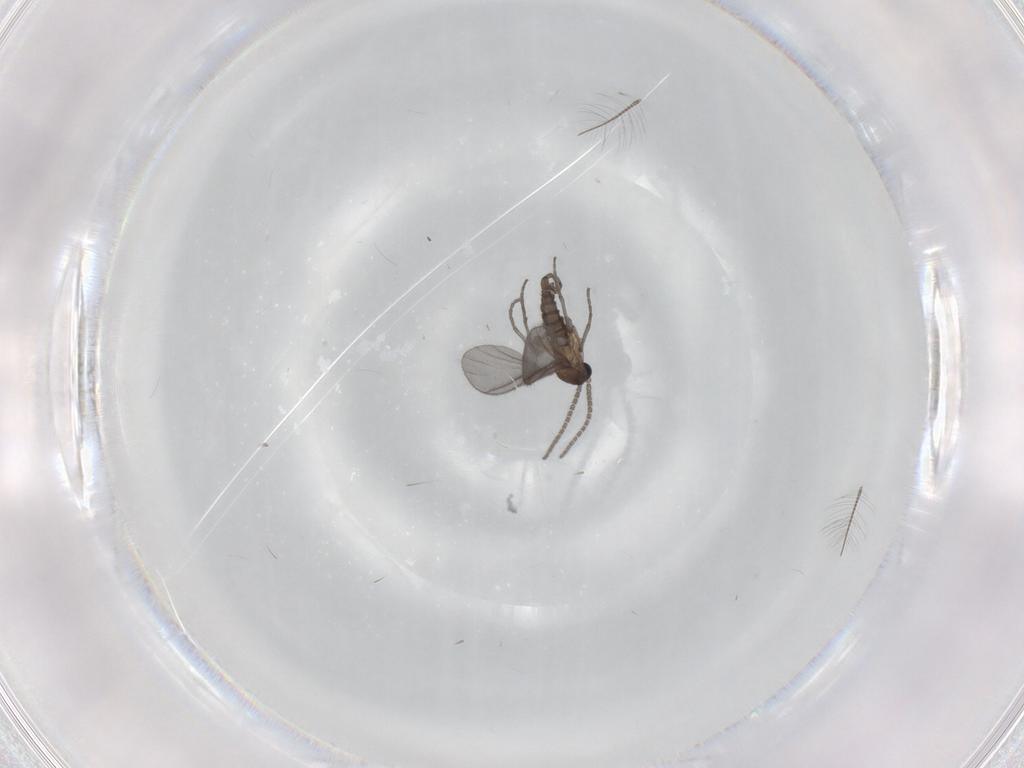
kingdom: Animalia
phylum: Arthropoda
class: Insecta
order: Diptera
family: Sciaridae
